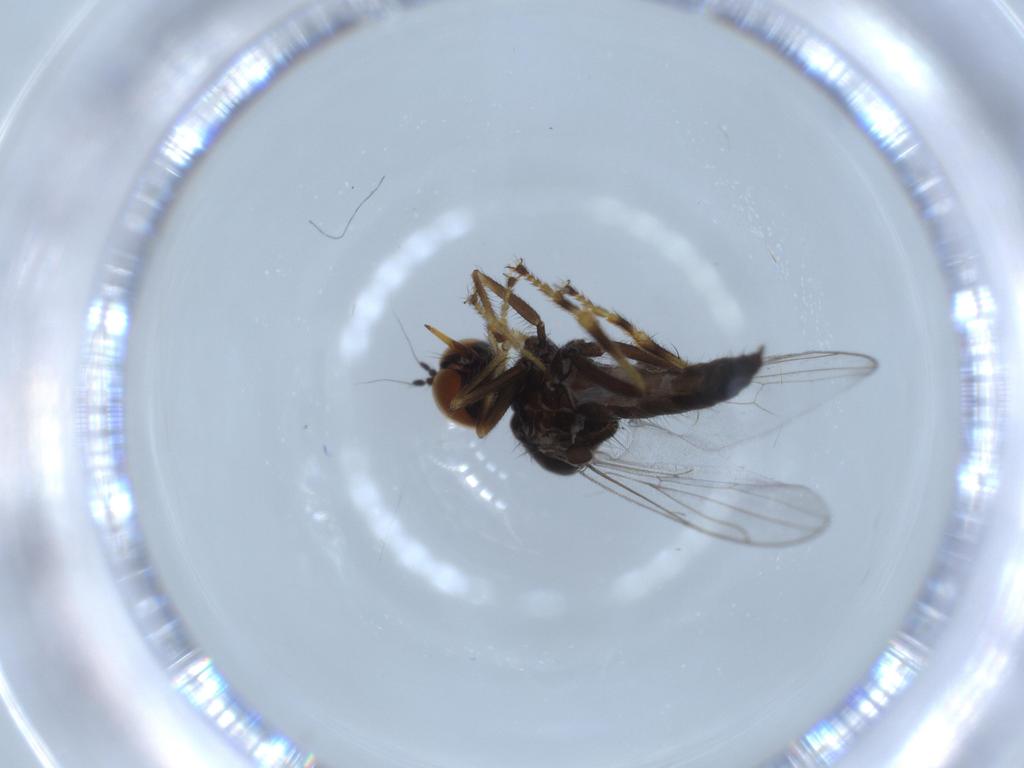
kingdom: Animalia
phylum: Arthropoda
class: Insecta
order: Diptera
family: Hybotidae
